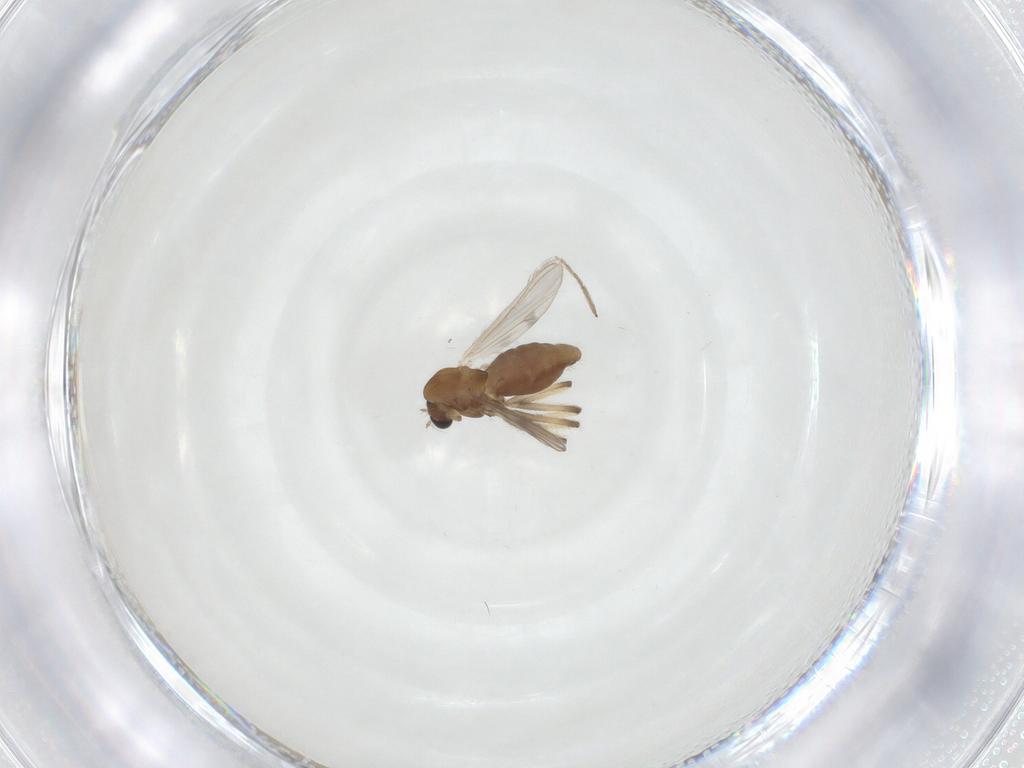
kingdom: Animalia
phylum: Arthropoda
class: Insecta
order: Diptera
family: Chironomidae
